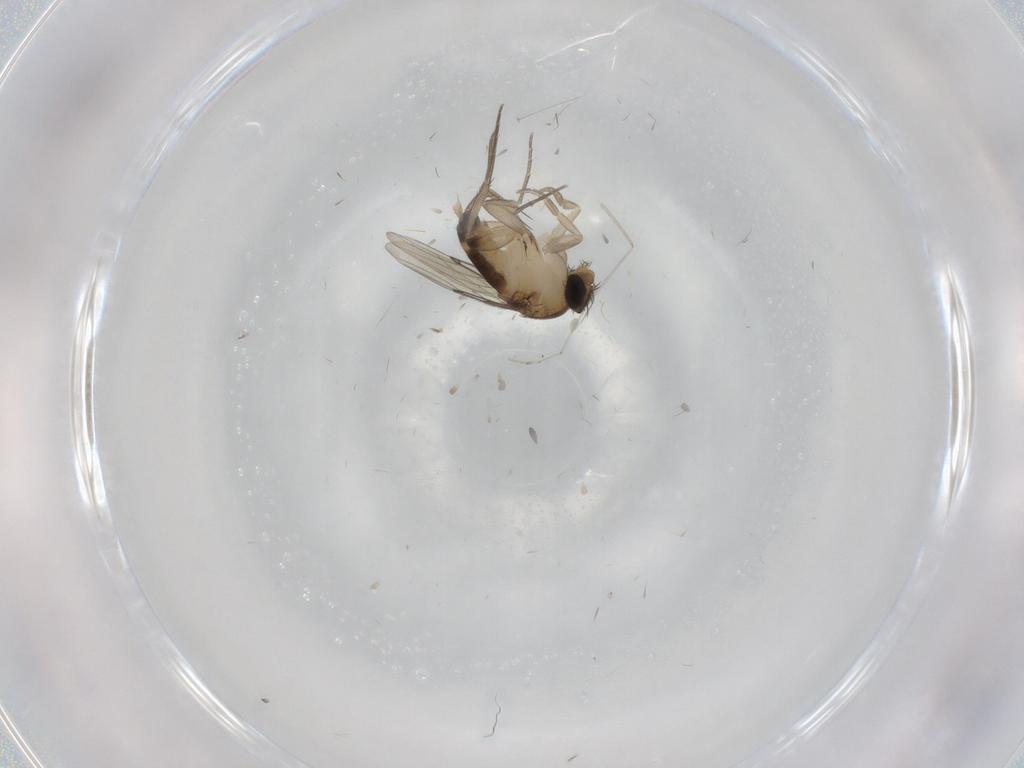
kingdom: Animalia
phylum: Arthropoda
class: Insecta
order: Diptera
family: Phoridae
